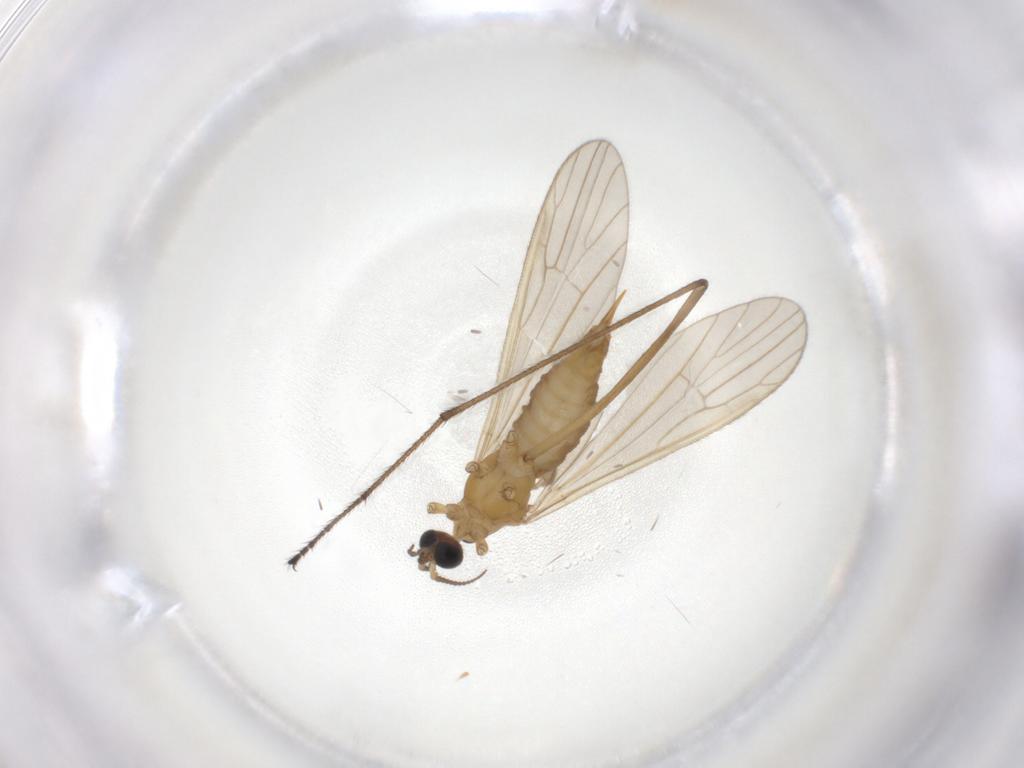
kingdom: Animalia
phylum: Arthropoda
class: Insecta
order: Diptera
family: Limoniidae
